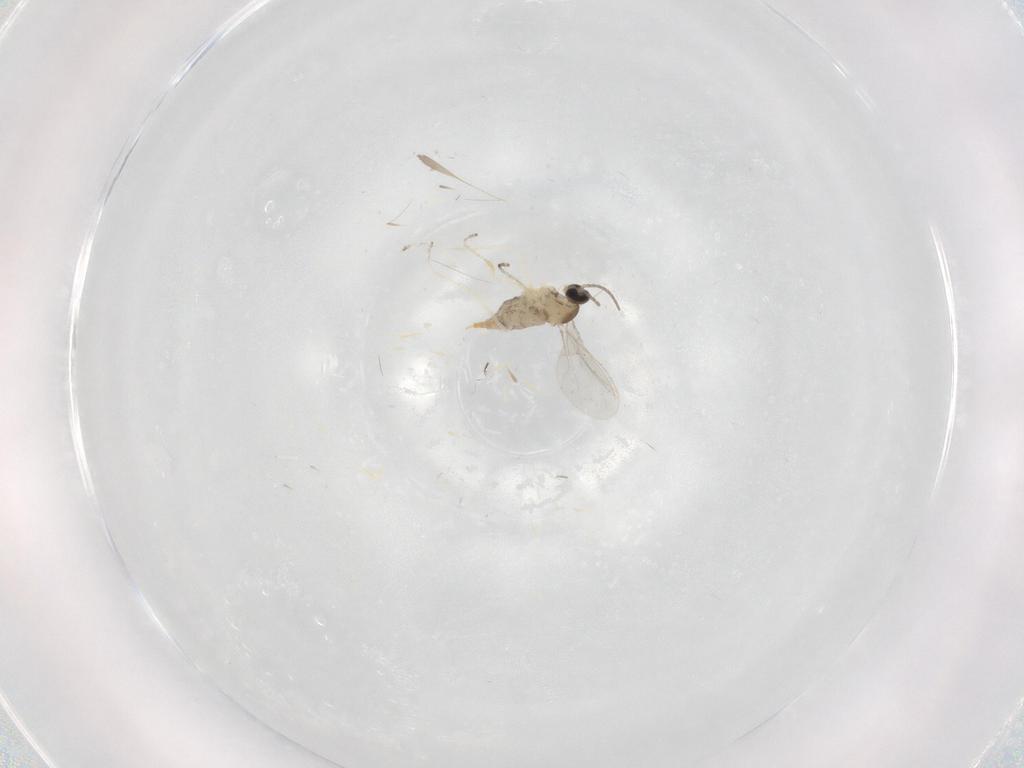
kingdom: Animalia
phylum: Arthropoda
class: Insecta
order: Diptera
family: Cecidomyiidae
